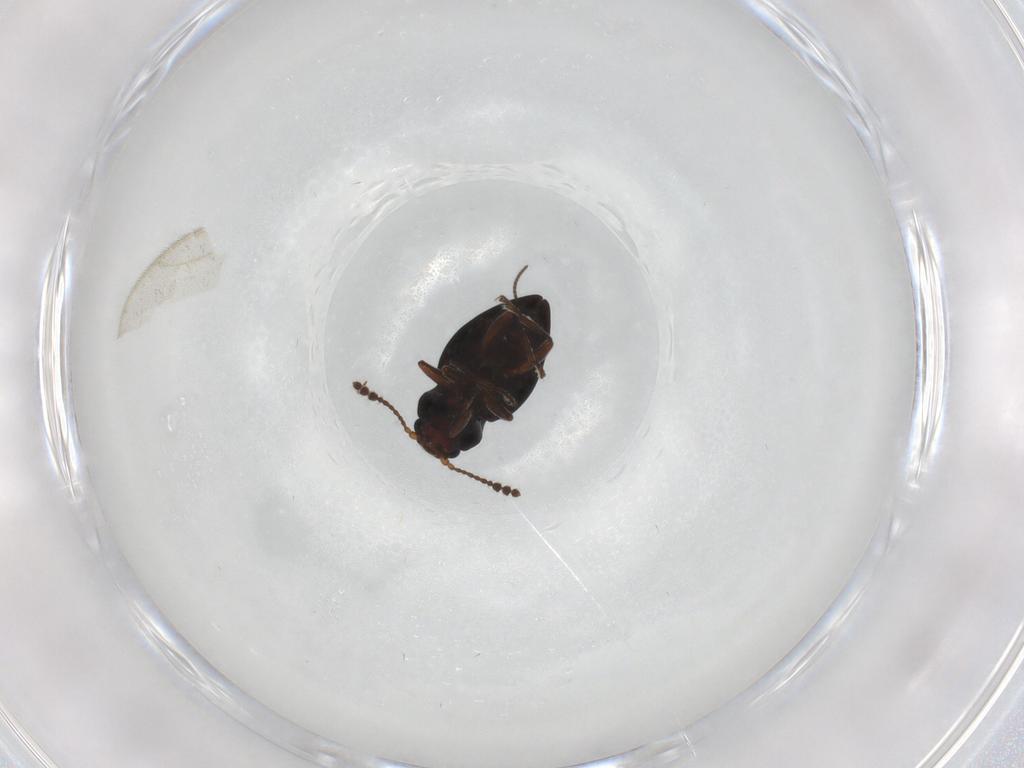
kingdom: Animalia
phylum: Arthropoda
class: Insecta
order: Coleoptera
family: Erotylidae
